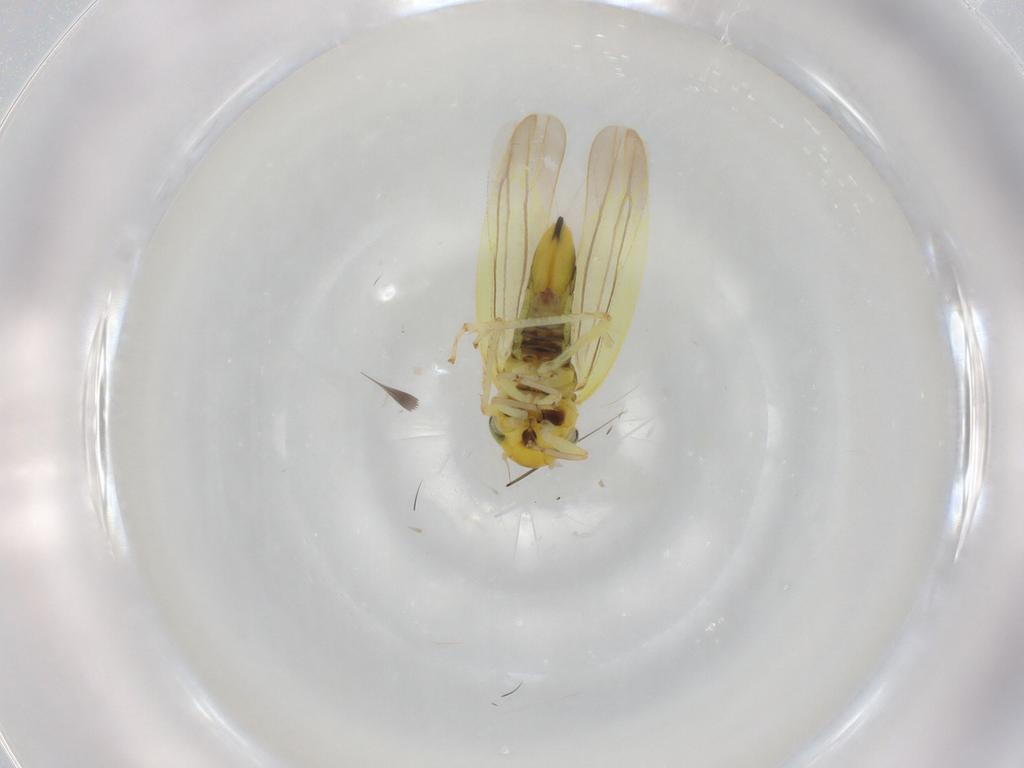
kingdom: Animalia
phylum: Arthropoda
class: Insecta
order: Hemiptera
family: Cicadellidae
